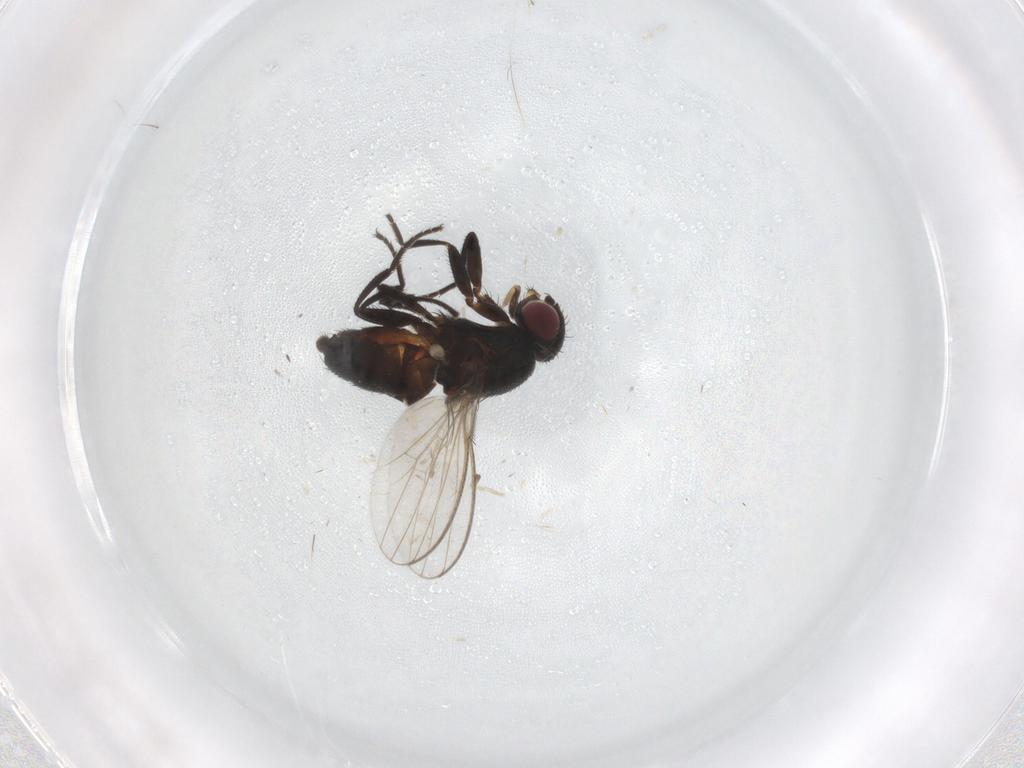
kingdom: Animalia
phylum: Arthropoda
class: Insecta
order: Diptera
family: Milichiidae
